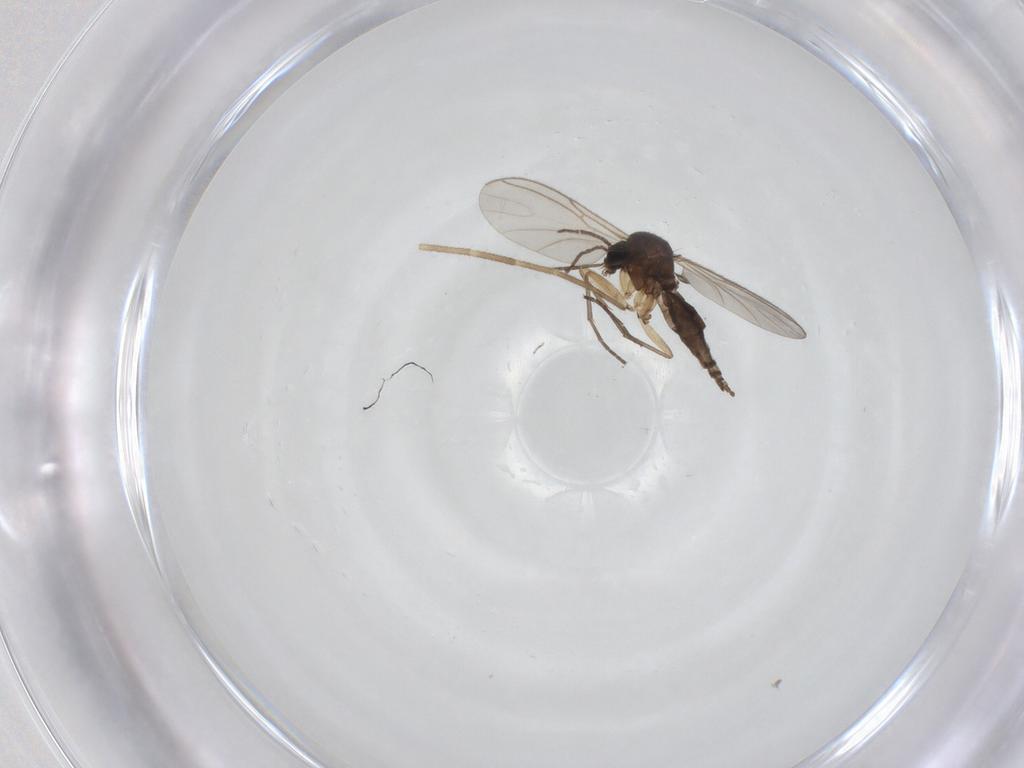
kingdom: Animalia
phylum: Arthropoda
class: Insecta
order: Diptera
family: Sciaridae
